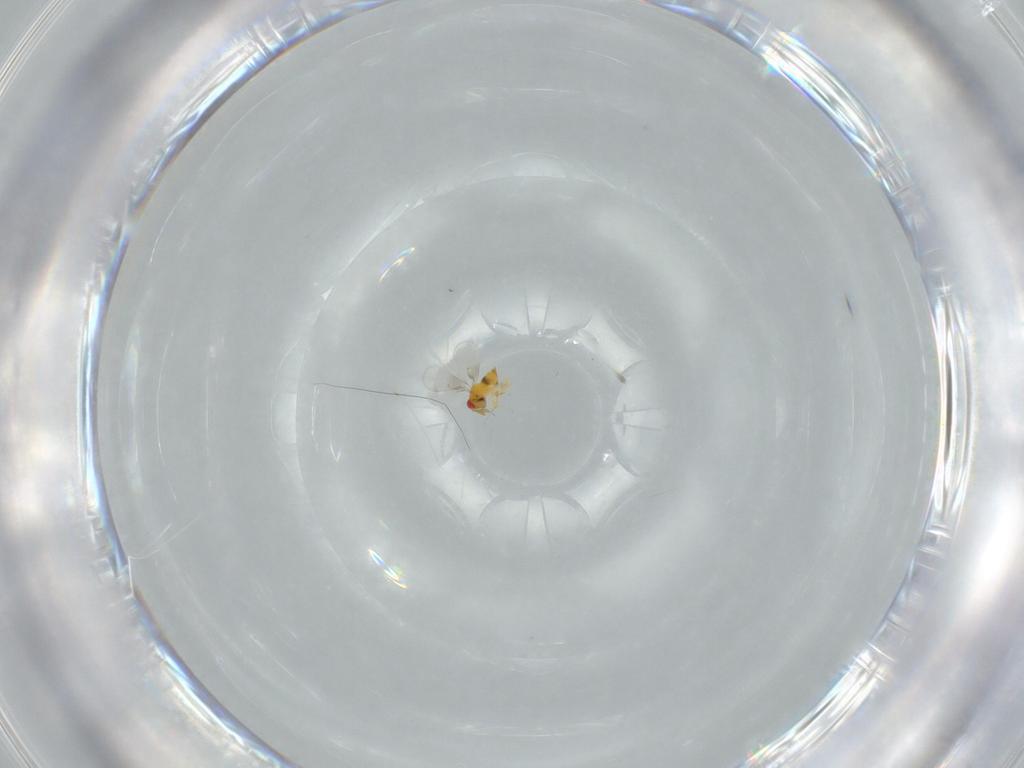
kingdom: Animalia
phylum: Arthropoda
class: Insecta
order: Hymenoptera
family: Trichogrammatidae
